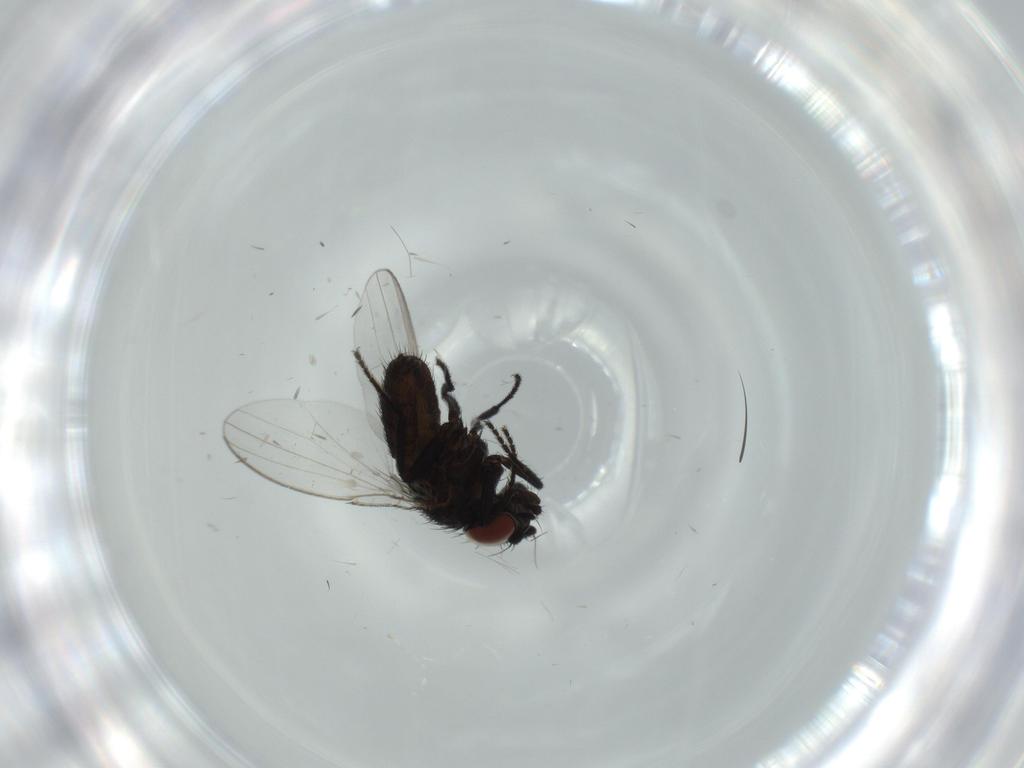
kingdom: Animalia
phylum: Arthropoda
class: Insecta
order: Diptera
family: Milichiidae
